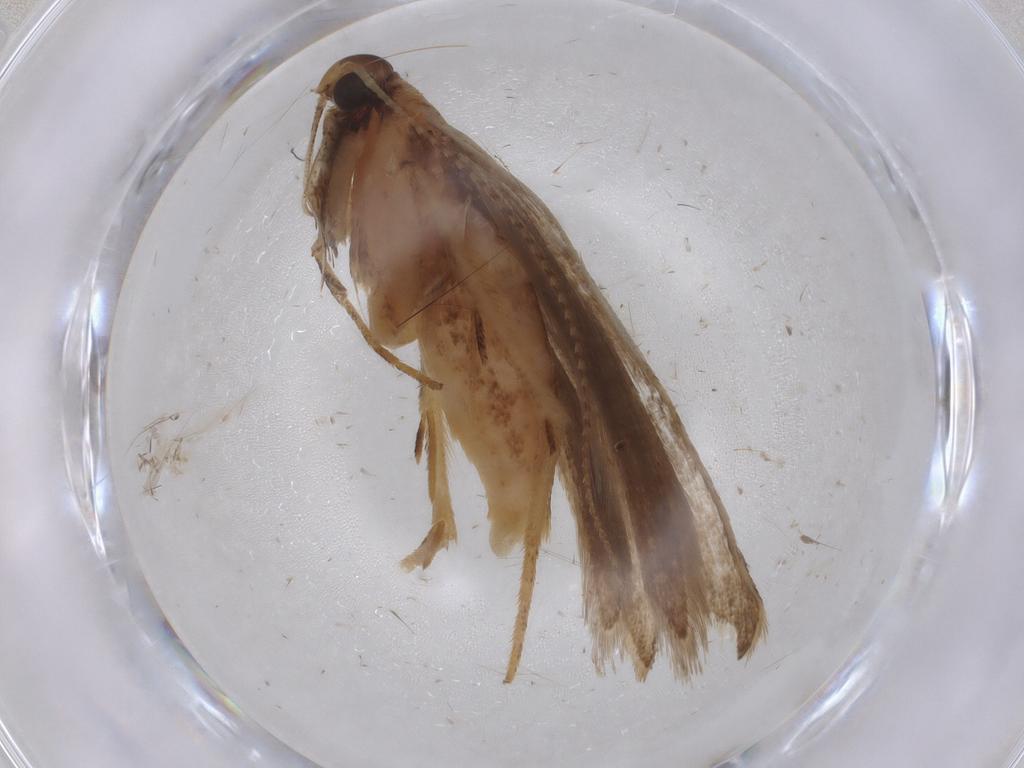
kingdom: Animalia
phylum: Arthropoda
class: Insecta
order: Lepidoptera
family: Gelechiidae
